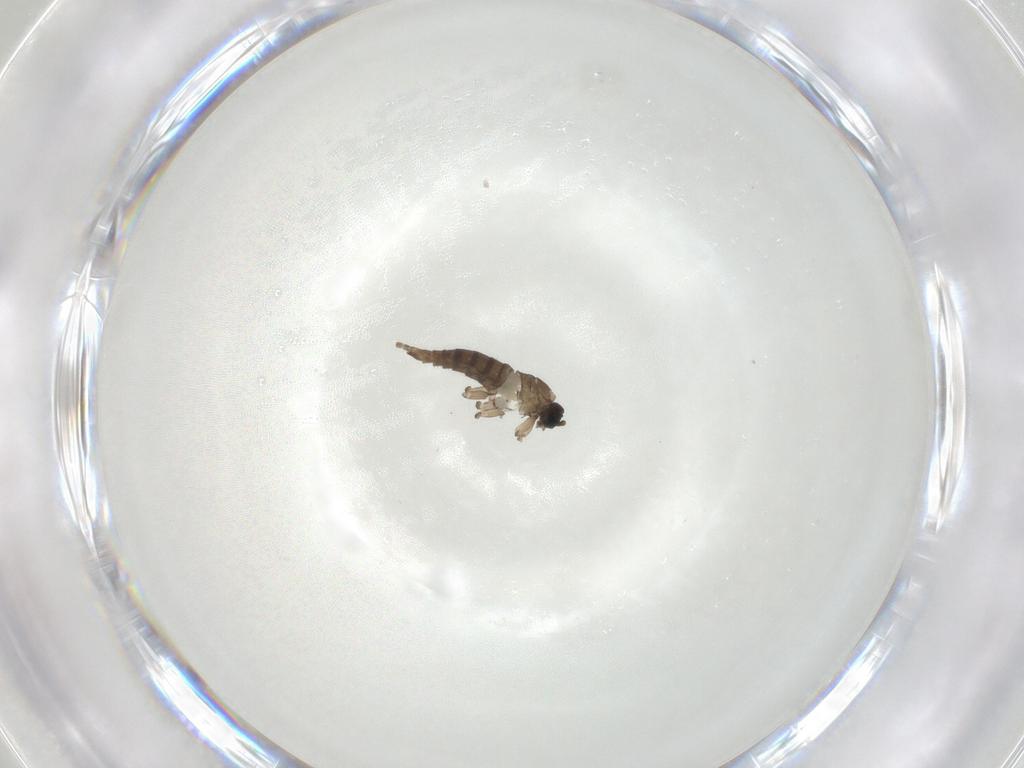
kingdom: Animalia
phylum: Arthropoda
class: Insecta
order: Diptera
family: Sciaridae
